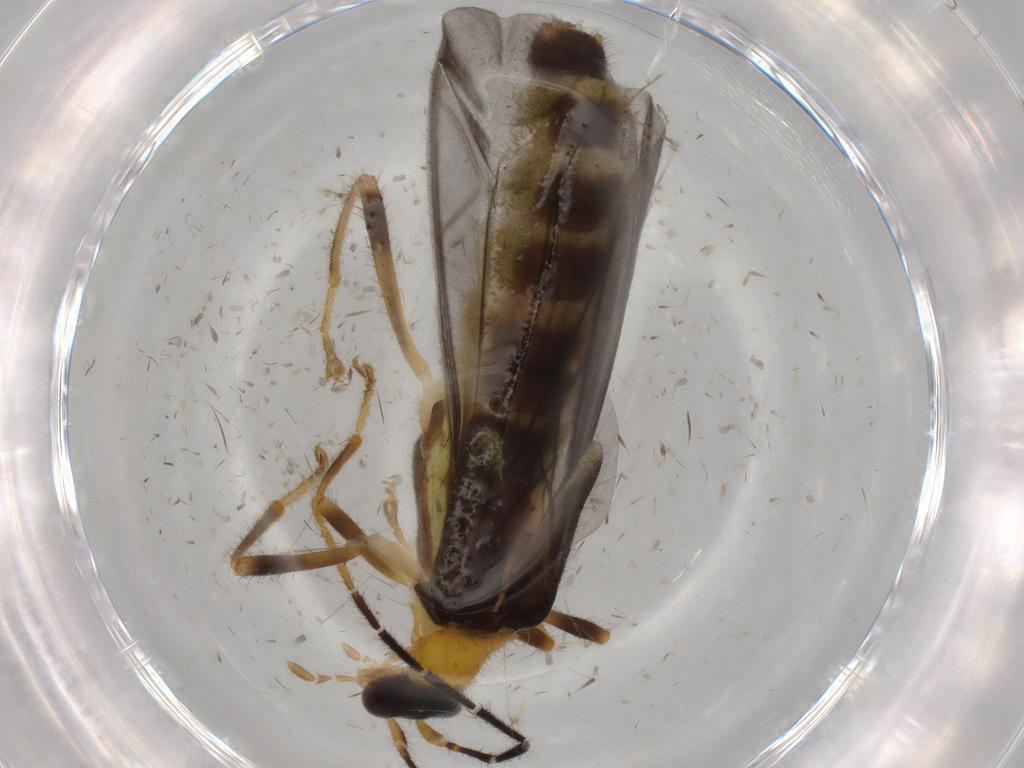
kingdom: Animalia
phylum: Arthropoda
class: Insecta
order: Coleoptera
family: Cantharidae
